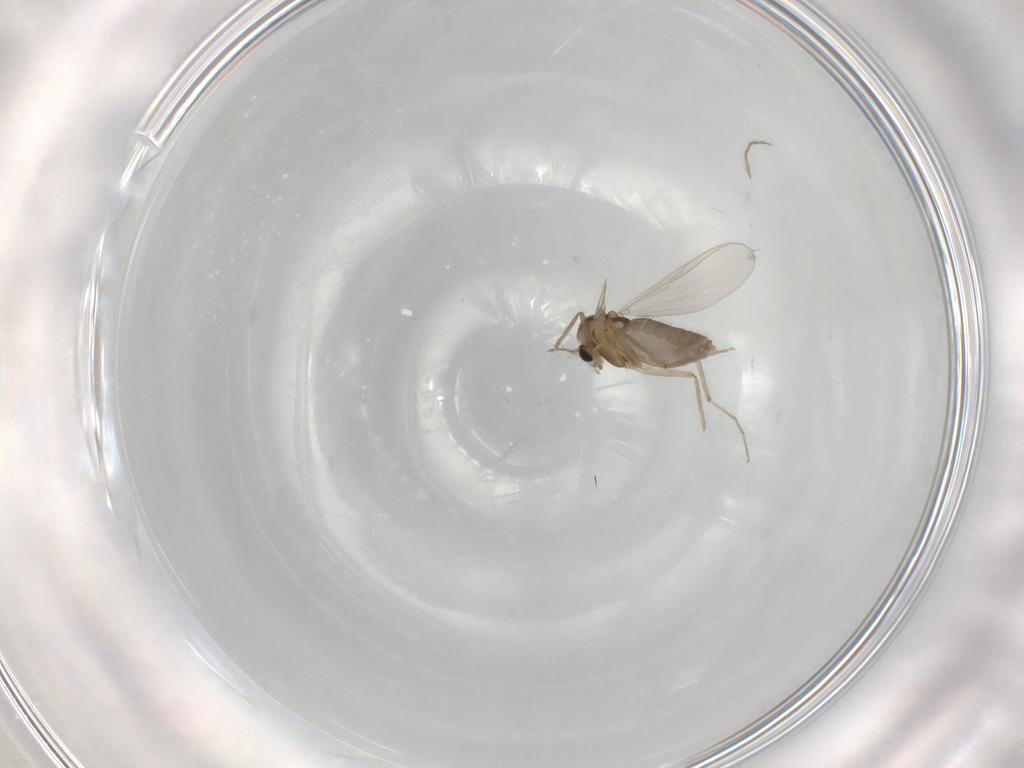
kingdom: Animalia
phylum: Arthropoda
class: Insecta
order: Diptera
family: Chironomidae
